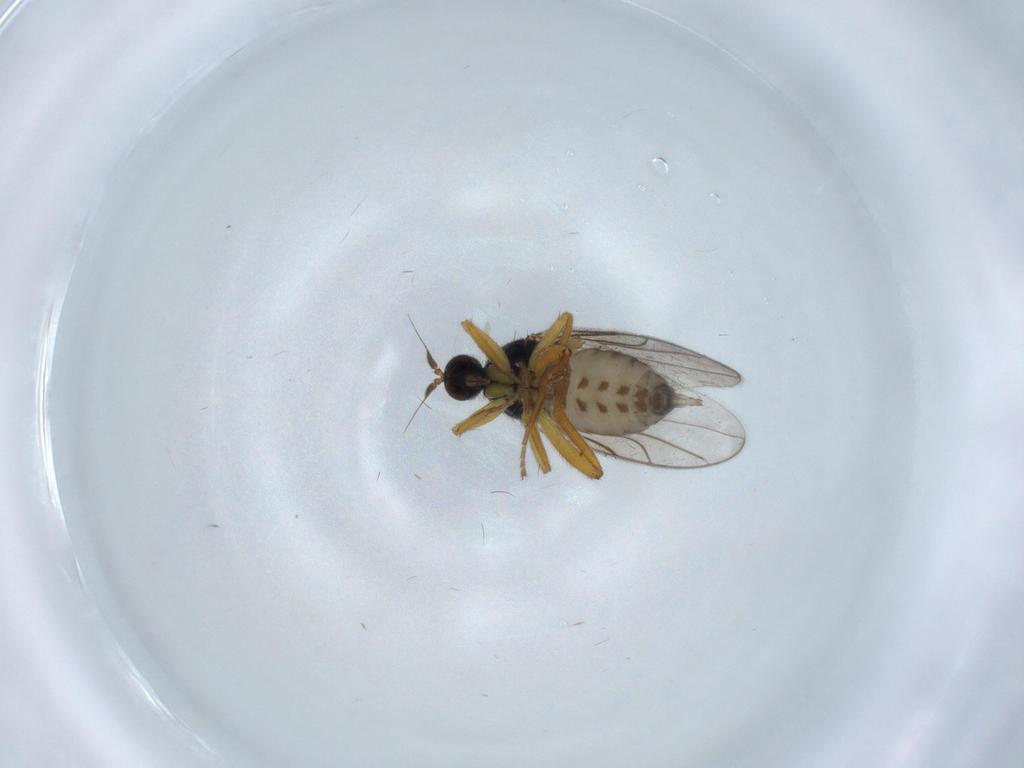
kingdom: Animalia
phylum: Arthropoda
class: Insecta
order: Diptera
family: Hybotidae
